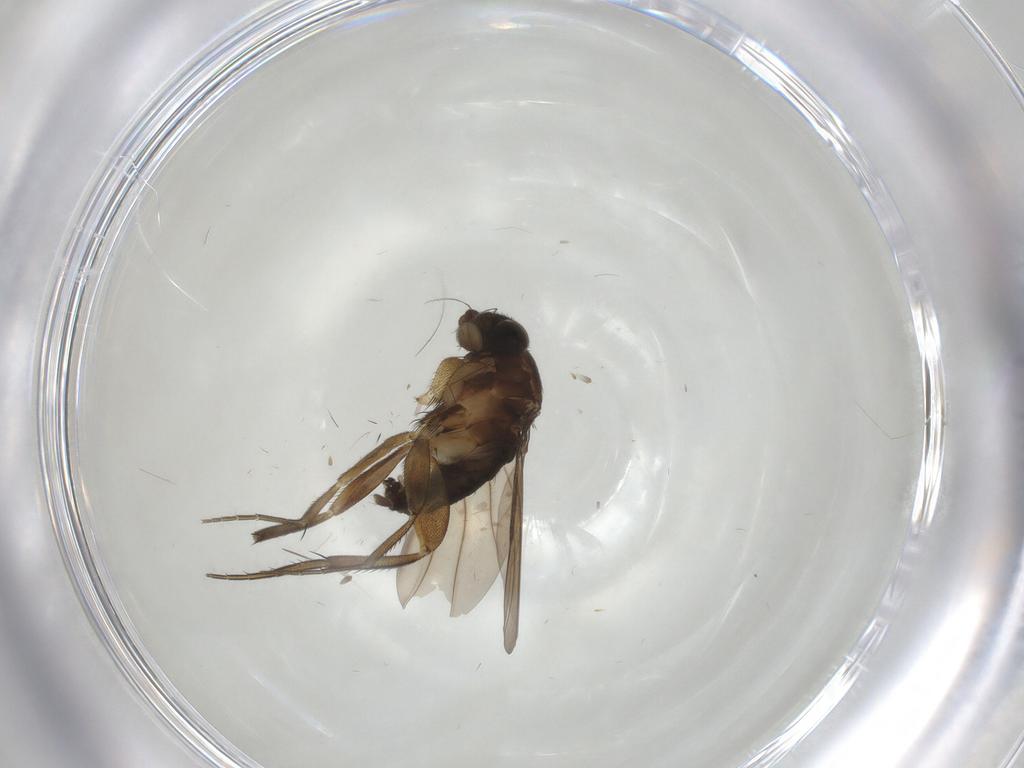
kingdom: Animalia
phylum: Arthropoda
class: Insecta
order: Diptera
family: Phoridae
